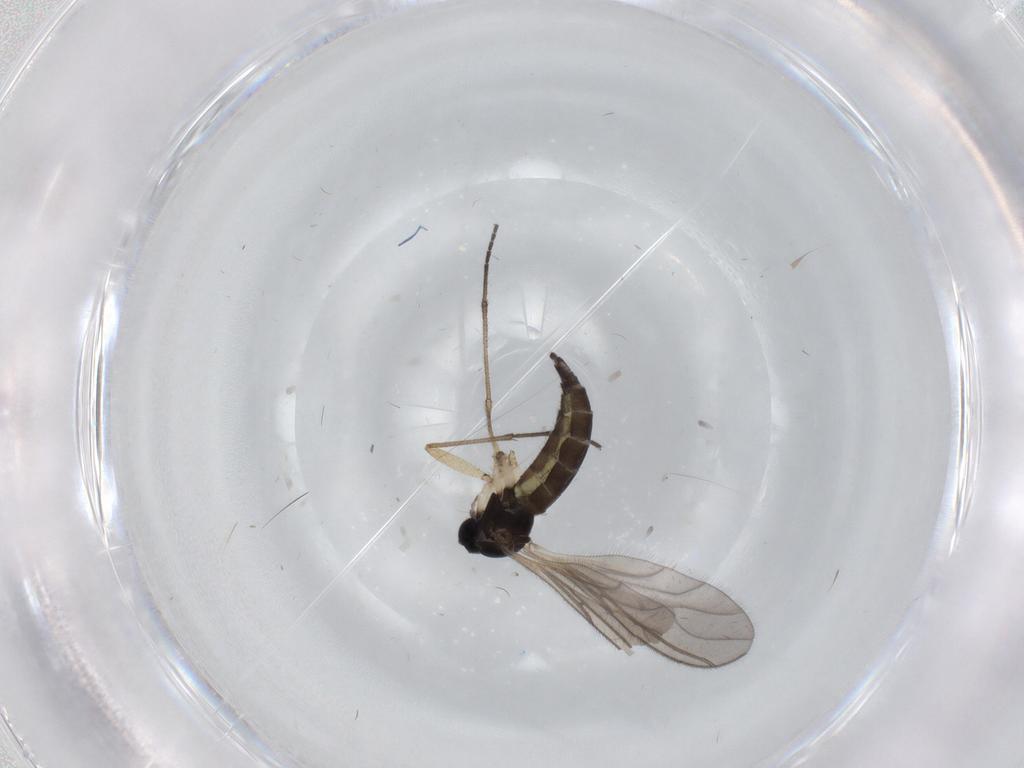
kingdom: Animalia
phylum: Arthropoda
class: Insecta
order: Diptera
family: Sciaridae
